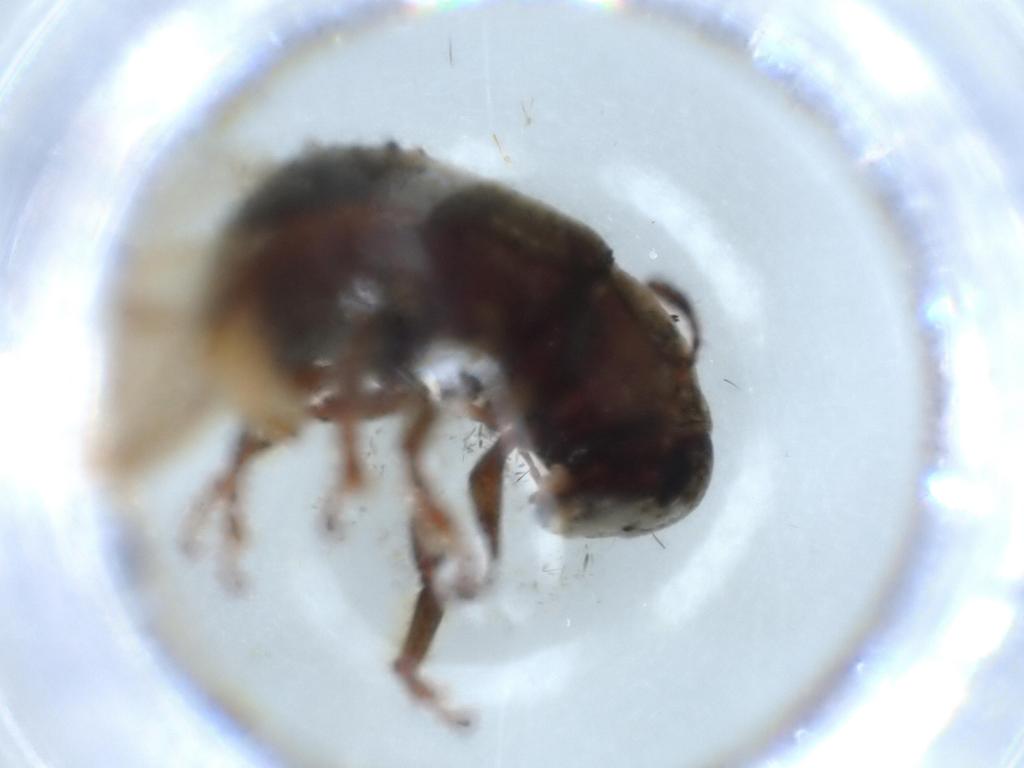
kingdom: Animalia
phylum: Arthropoda
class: Insecta
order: Coleoptera
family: Anthribidae
